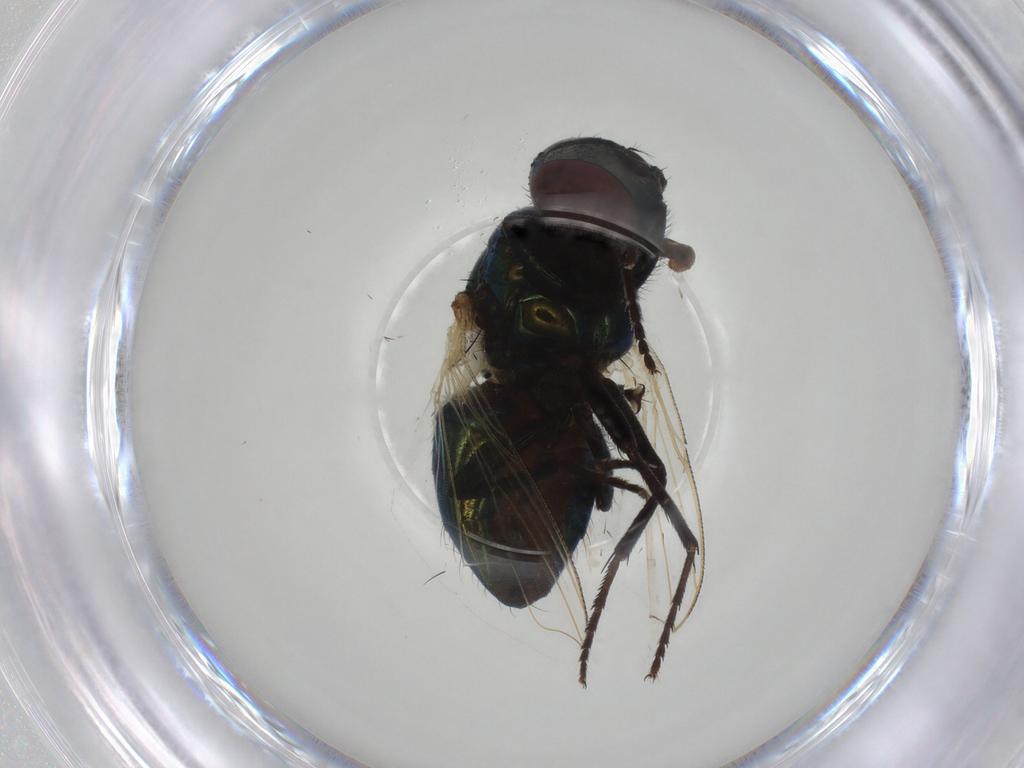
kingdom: Animalia
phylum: Arthropoda
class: Insecta
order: Diptera
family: Muscidae
